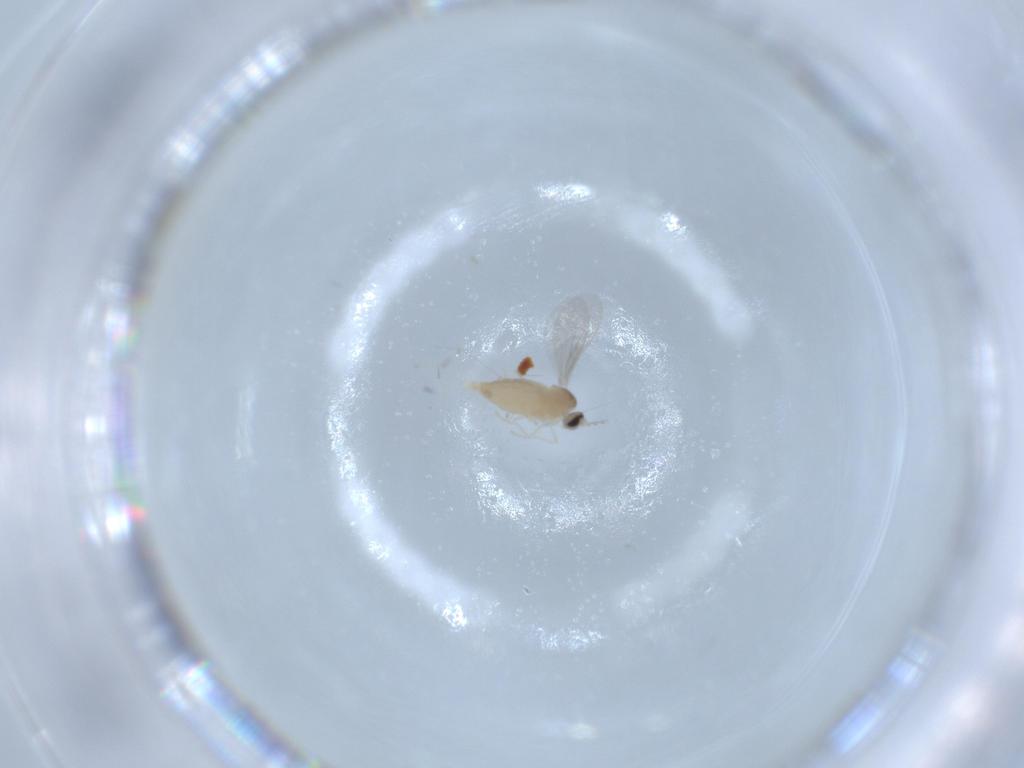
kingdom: Animalia
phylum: Arthropoda
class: Insecta
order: Diptera
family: Cecidomyiidae
